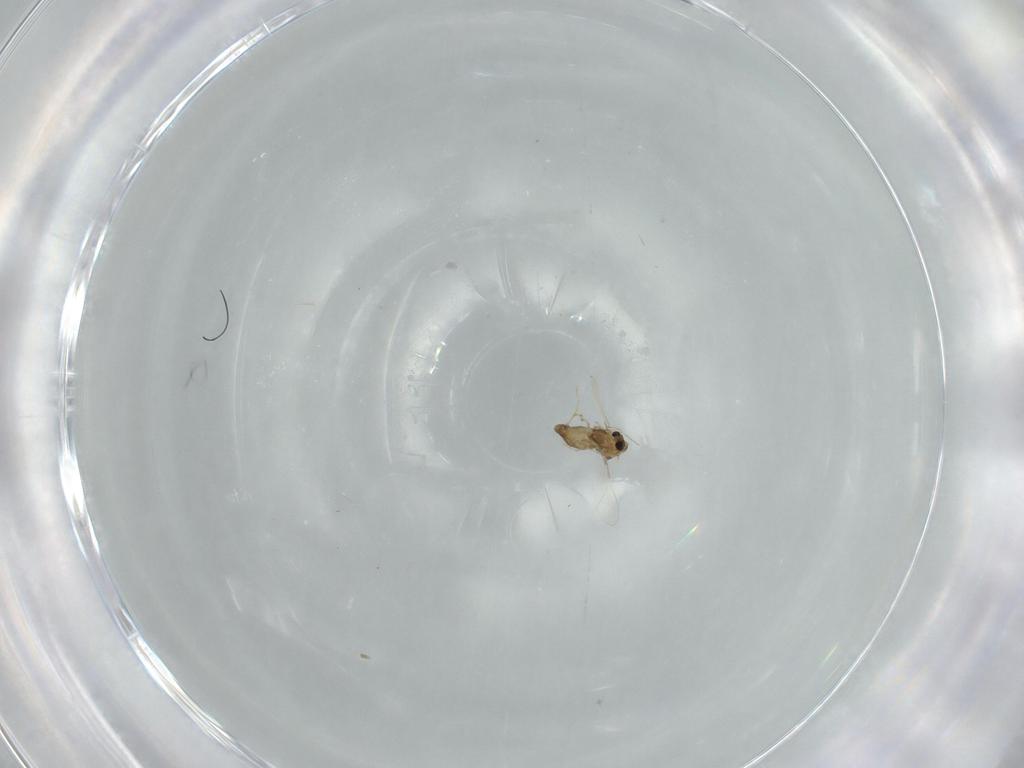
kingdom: Animalia
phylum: Arthropoda
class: Insecta
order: Diptera
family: Chironomidae
